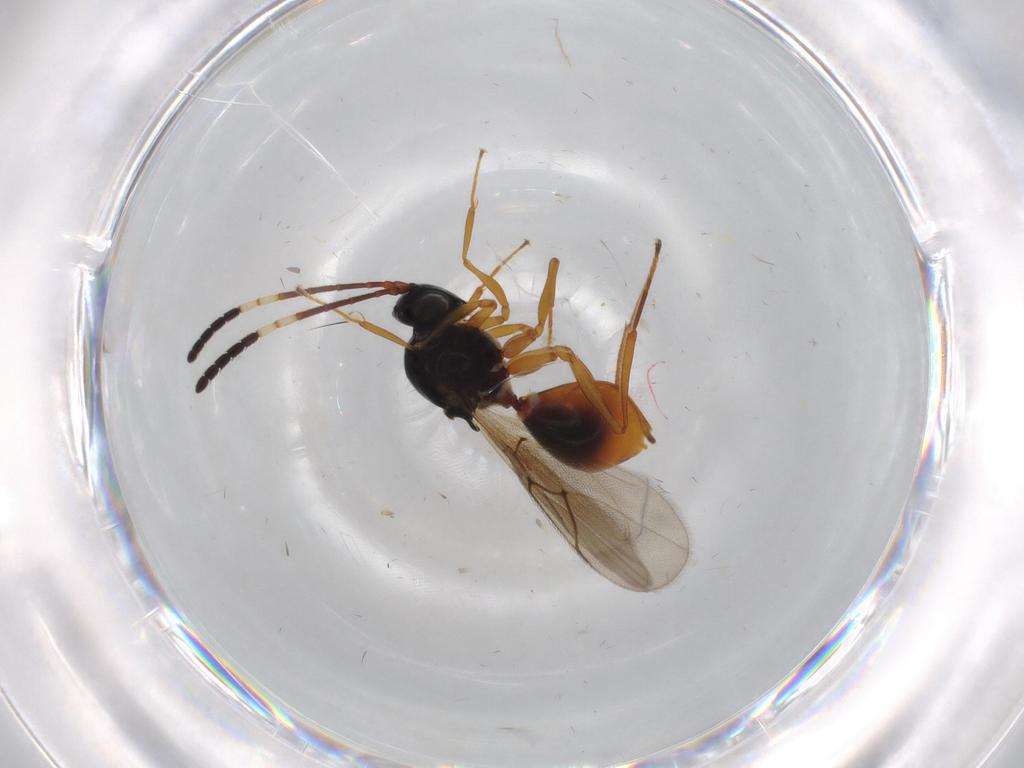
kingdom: Animalia
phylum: Arthropoda
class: Insecta
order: Hymenoptera
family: Figitidae
